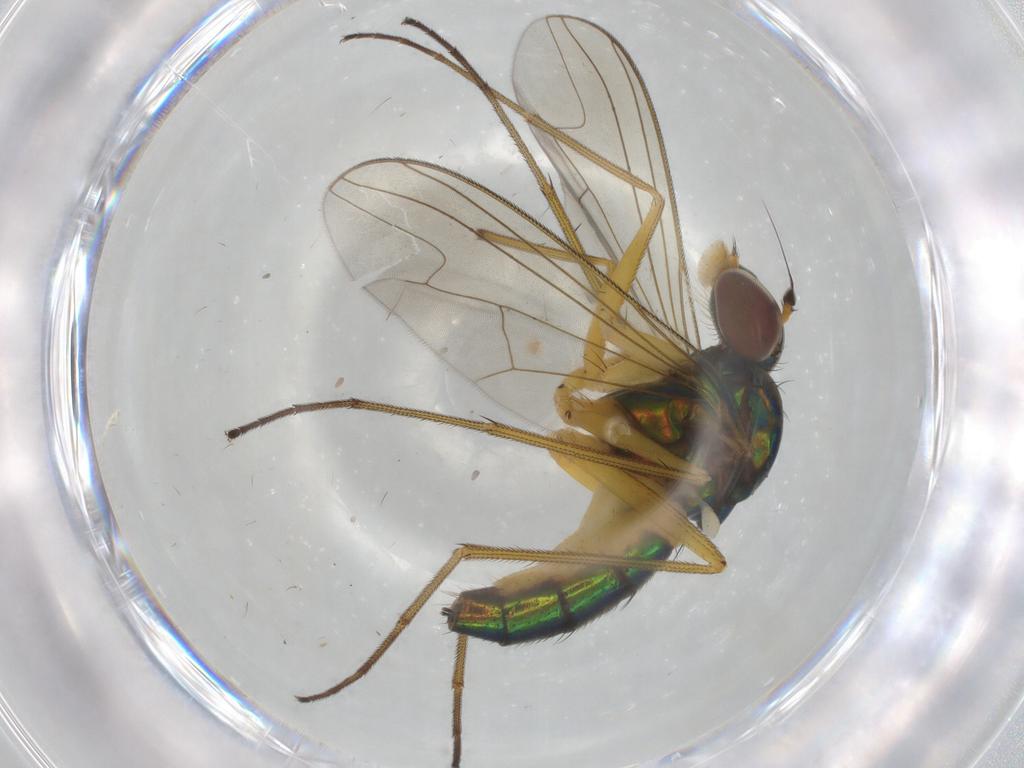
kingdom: Animalia
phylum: Arthropoda
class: Insecta
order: Diptera
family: Dolichopodidae
